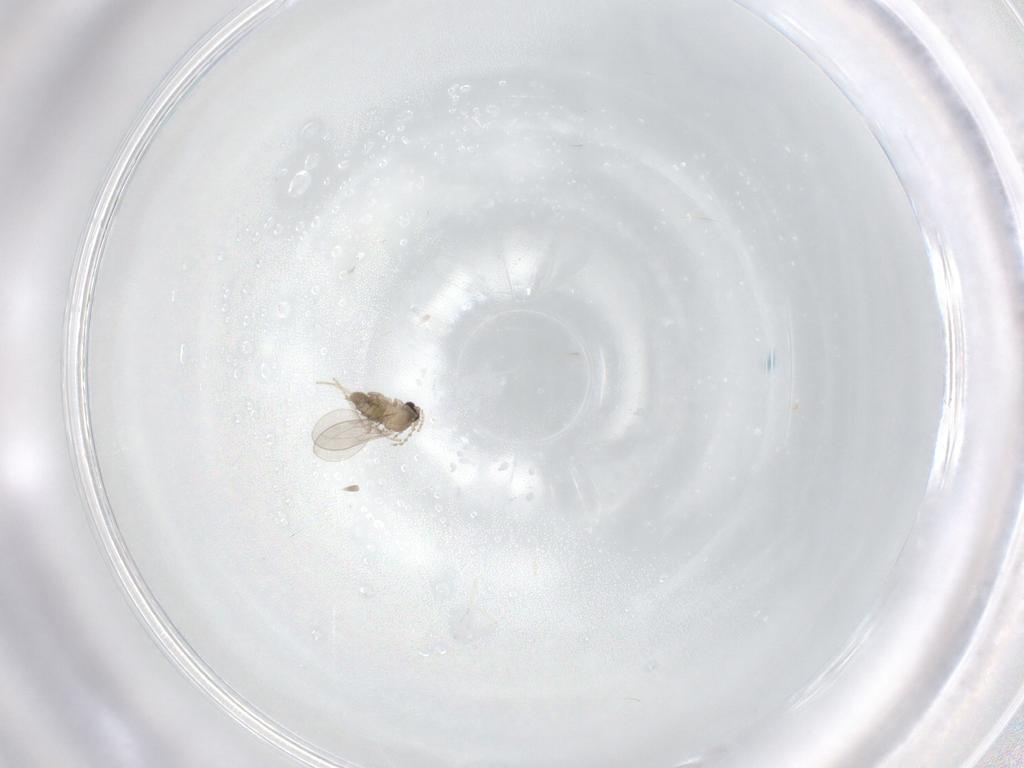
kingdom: Animalia
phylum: Arthropoda
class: Insecta
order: Diptera
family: Cecidomyiidae
